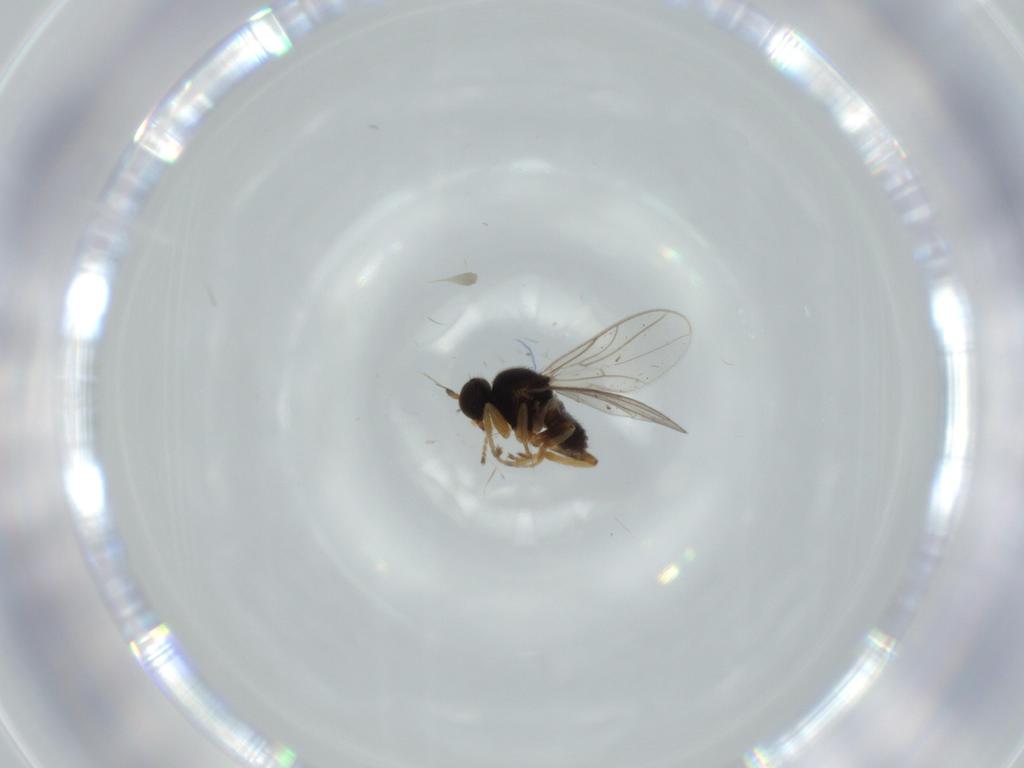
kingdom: Animalia
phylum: Arthropoda
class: Insecta
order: Diptera
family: Hybotidae
